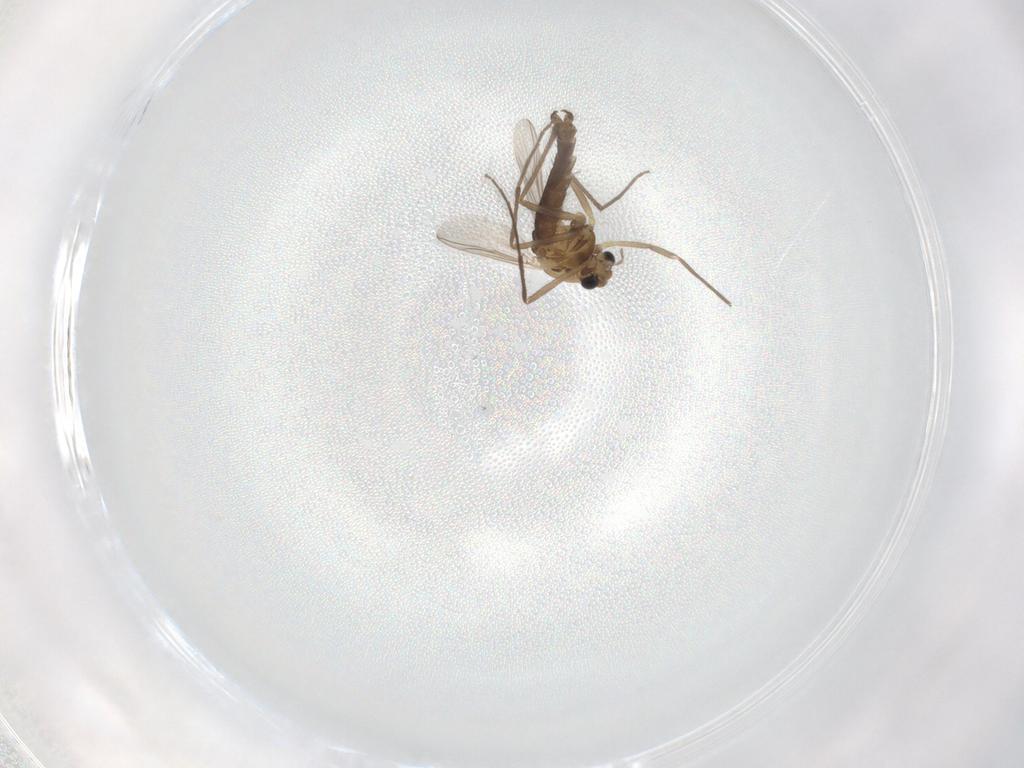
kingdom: Animalia
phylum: Arthropoda
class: Insecta
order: Diptera
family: Chironomidae
